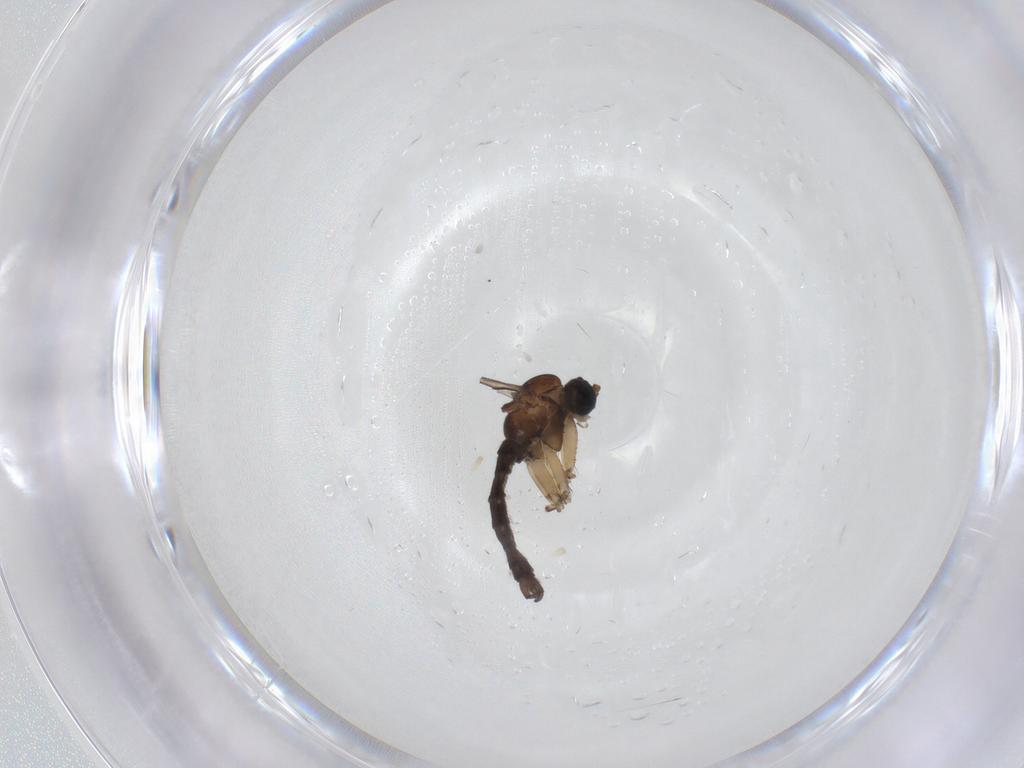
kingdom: Animalia
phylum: Arthropoda
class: Insecta
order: Diptera
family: Sciaridae
